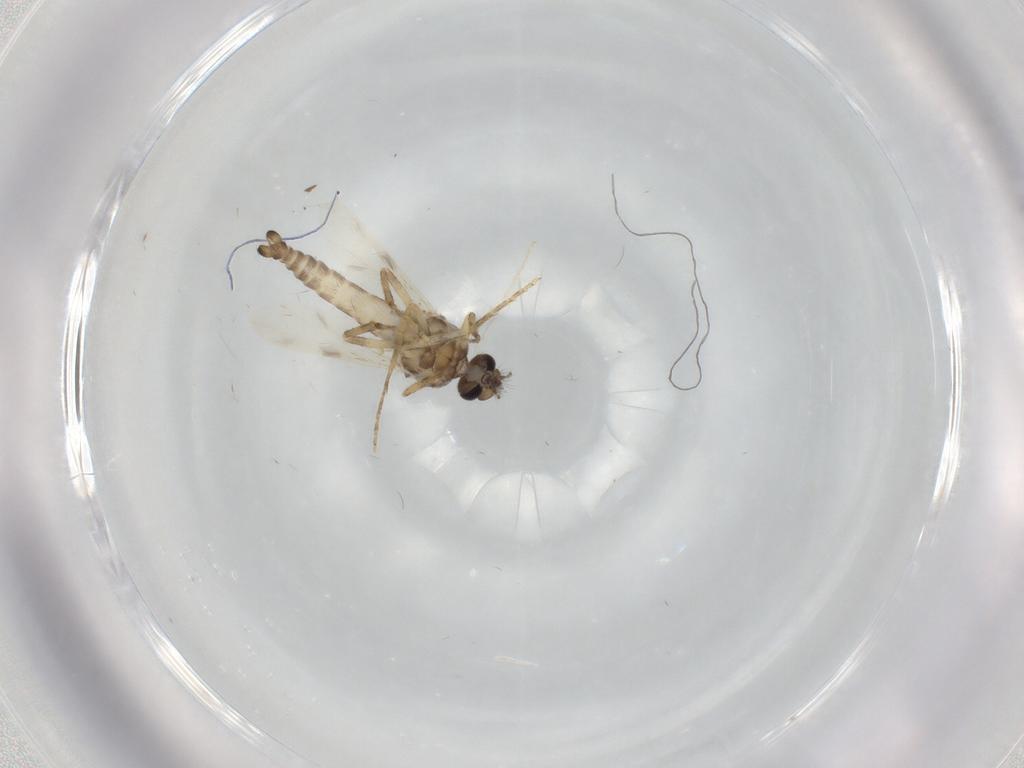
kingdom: Animalia
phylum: Arthropoda
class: Insecta
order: Diptera
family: Ceratopogonidae
